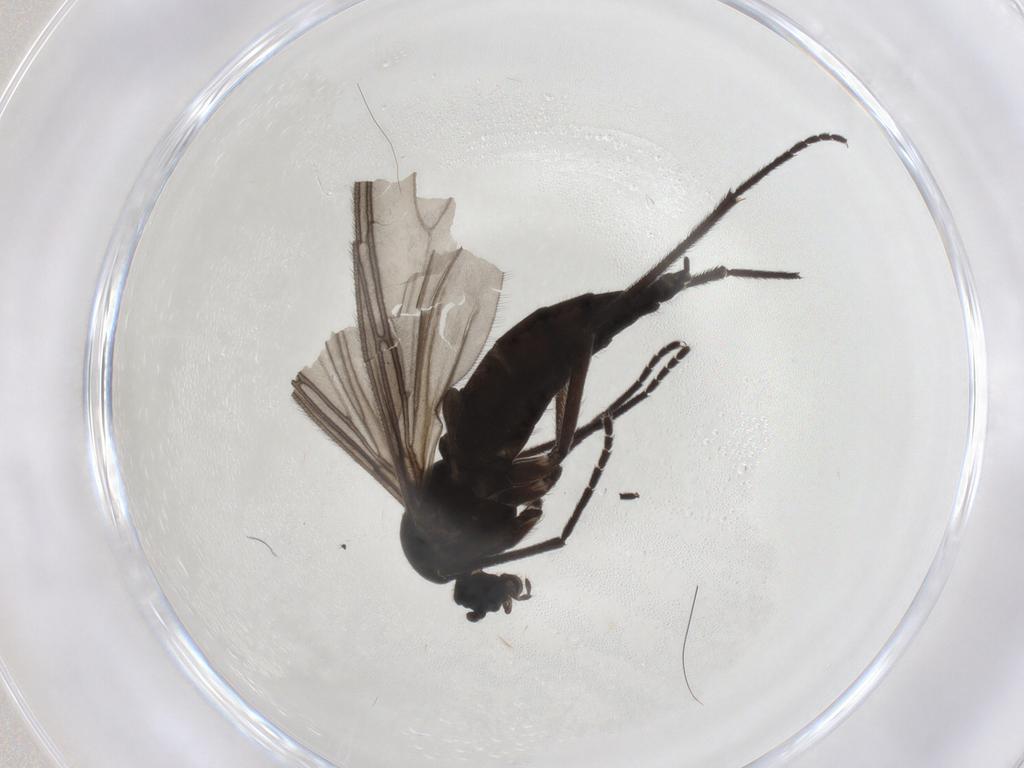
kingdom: Animalia
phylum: Arthropoda
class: Insecta
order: Diptera
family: Sciaridae
